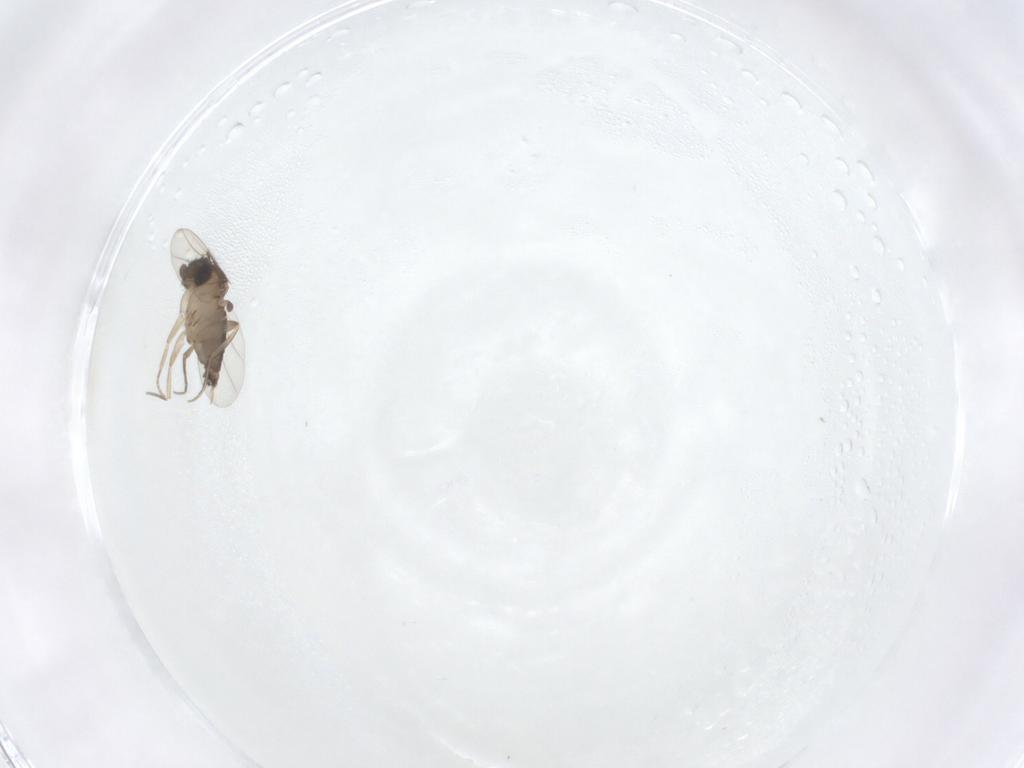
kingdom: Animalia
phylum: Arthropoda
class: Insecta
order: Diptera
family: Phoridae
